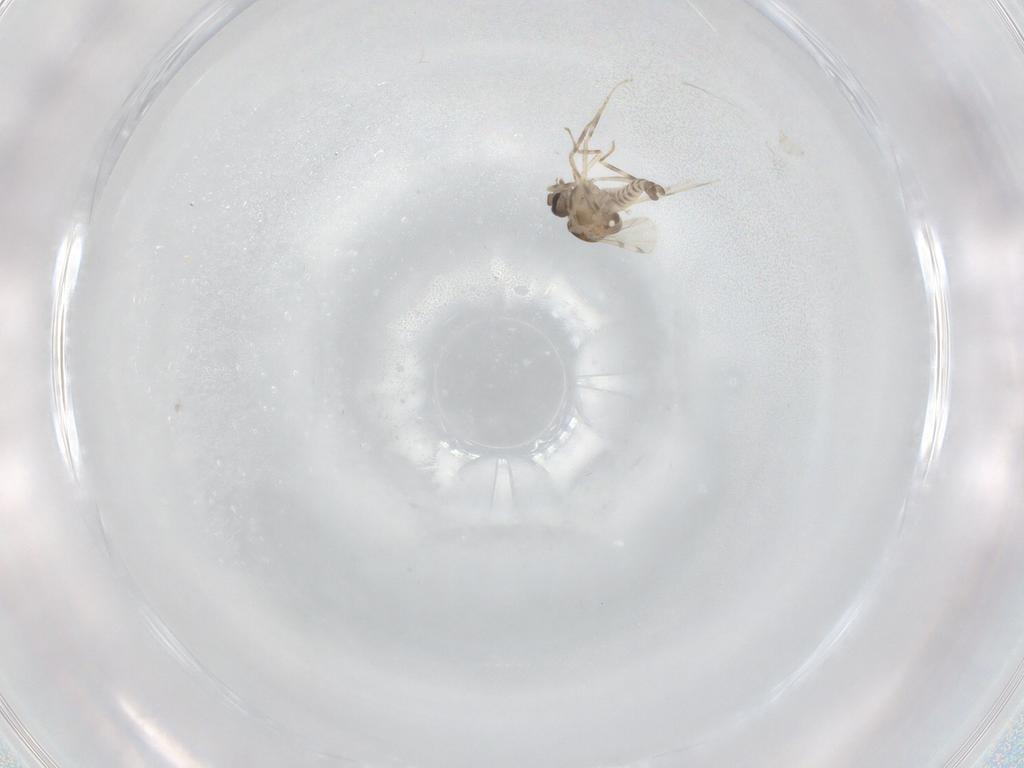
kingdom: Animalia
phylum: Arthropoda
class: Insecta
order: Diptera
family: Ceratopogonidae
